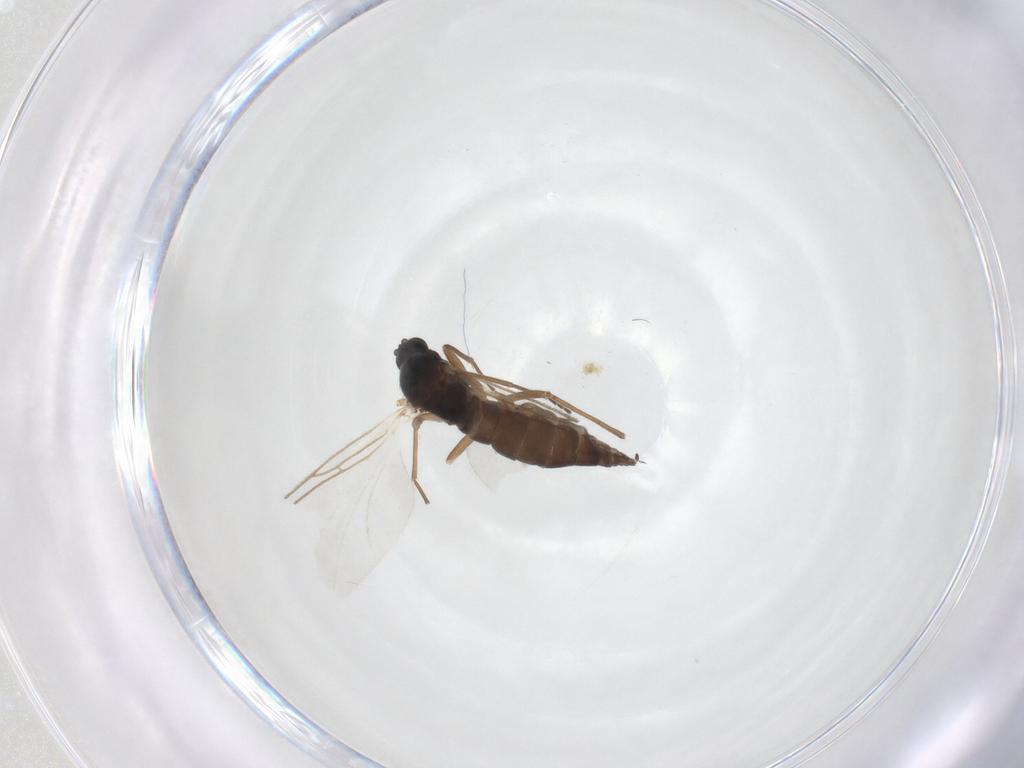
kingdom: Animalia
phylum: Arthropoda
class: Insecta
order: Diptera
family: Sciaridae
